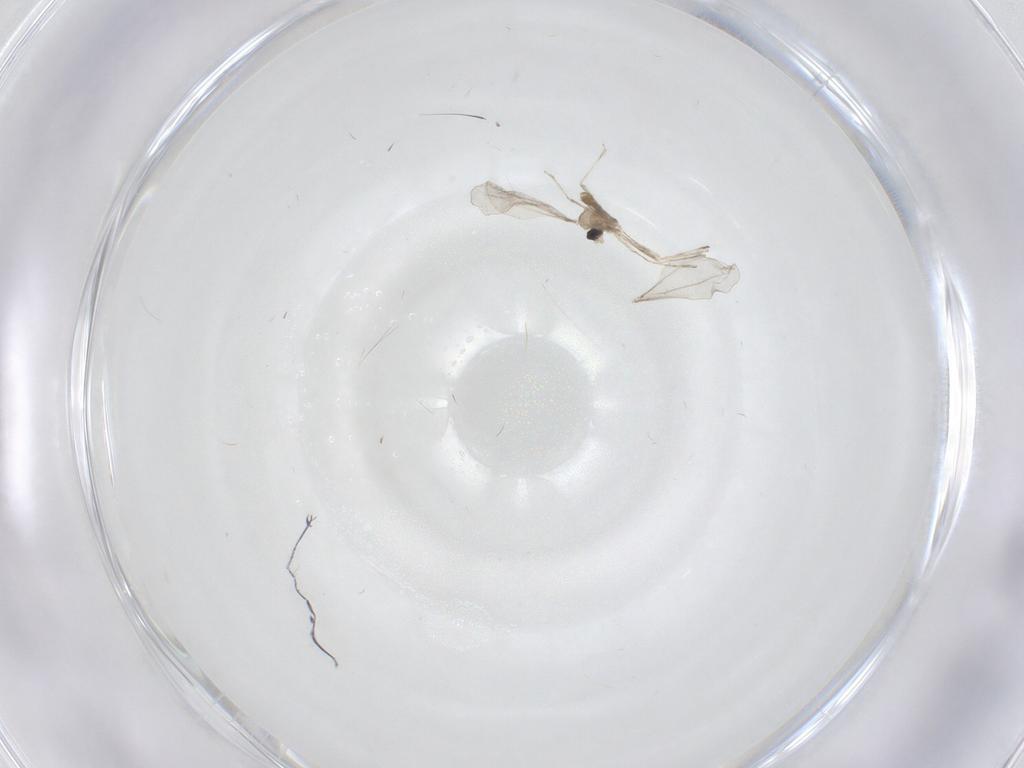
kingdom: Animalia
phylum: Arthropoda
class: Insecta
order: Diptera
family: Cecidomyiidae
